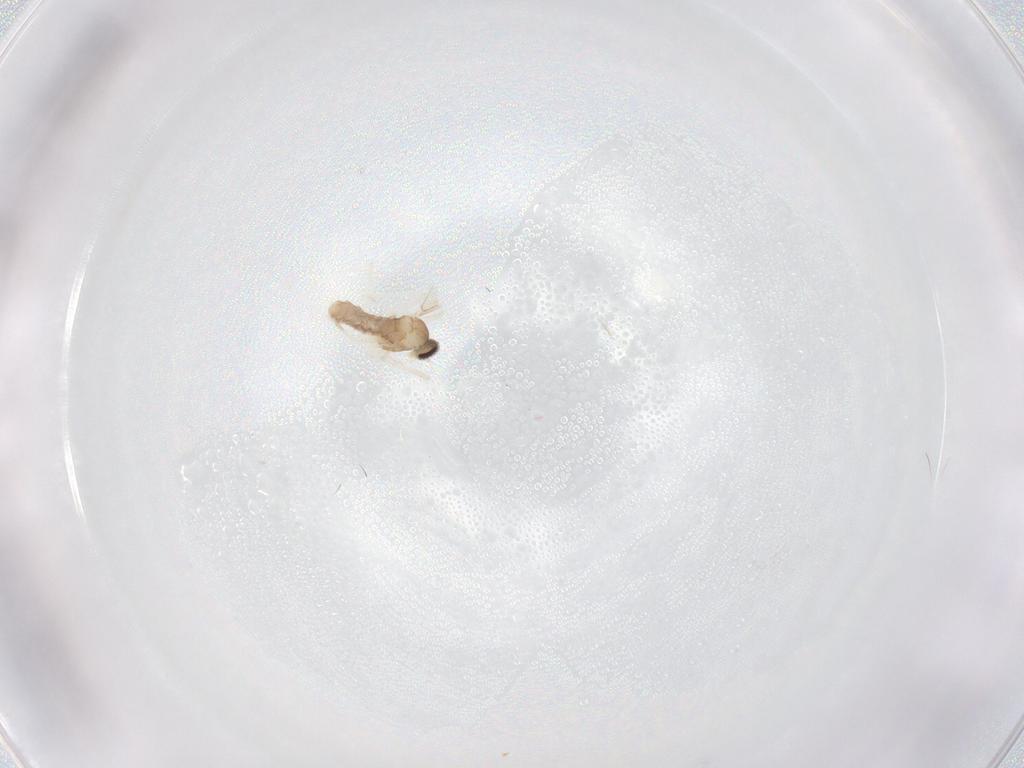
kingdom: Animalia
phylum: Arthropoda
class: Insecta
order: Diptera
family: Cecidomyiidae
